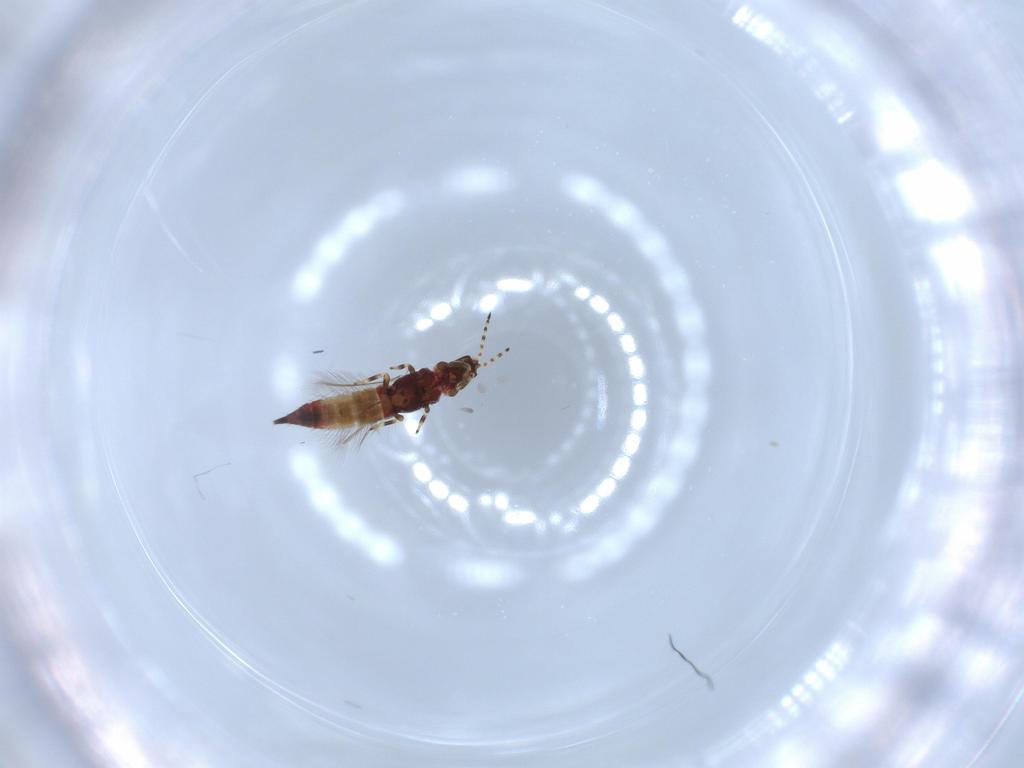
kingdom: Animalia
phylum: Arthropoda
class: Insecta
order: Thysanoptera
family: Phlaeothripidae
